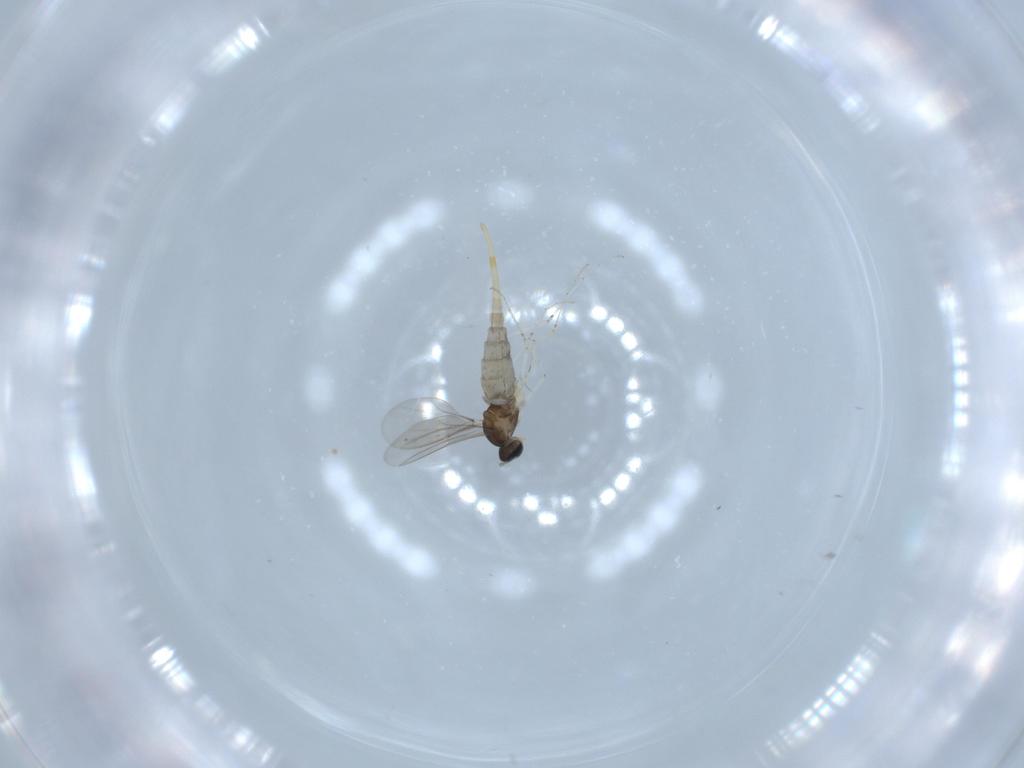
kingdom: Animalia
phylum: Arthropoda
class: Insecta
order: Diptera
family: Cecidomyiidae
